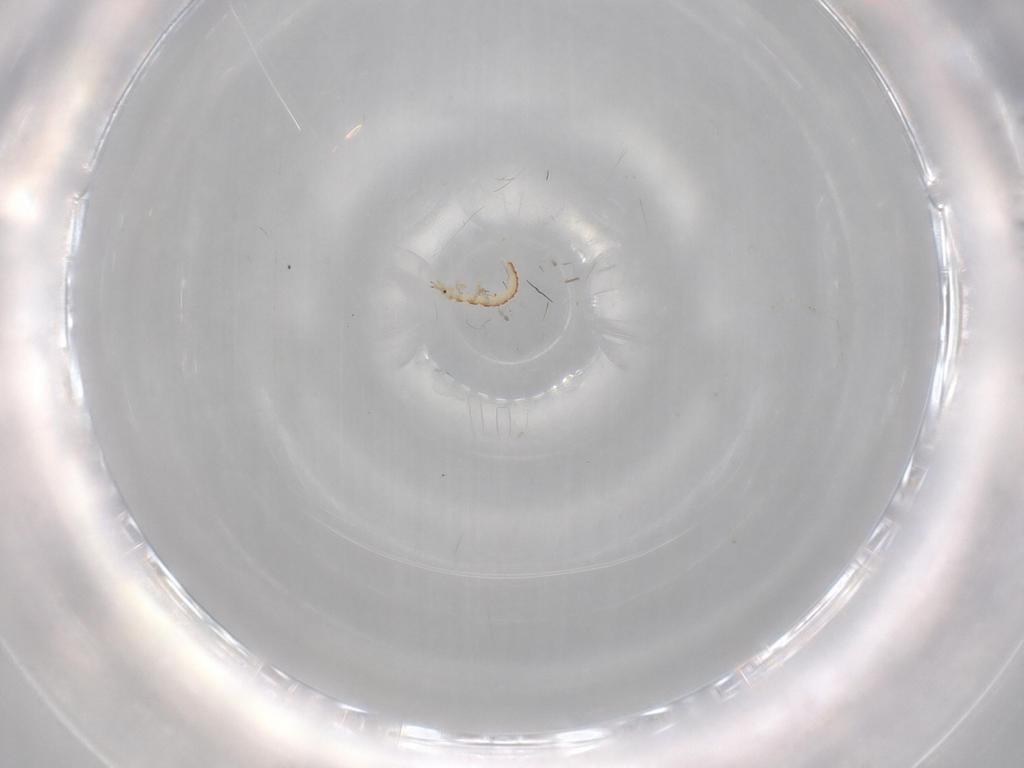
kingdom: Animalia
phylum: Arthropoda
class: Insecta
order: Neuroptera
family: Mantispidae
